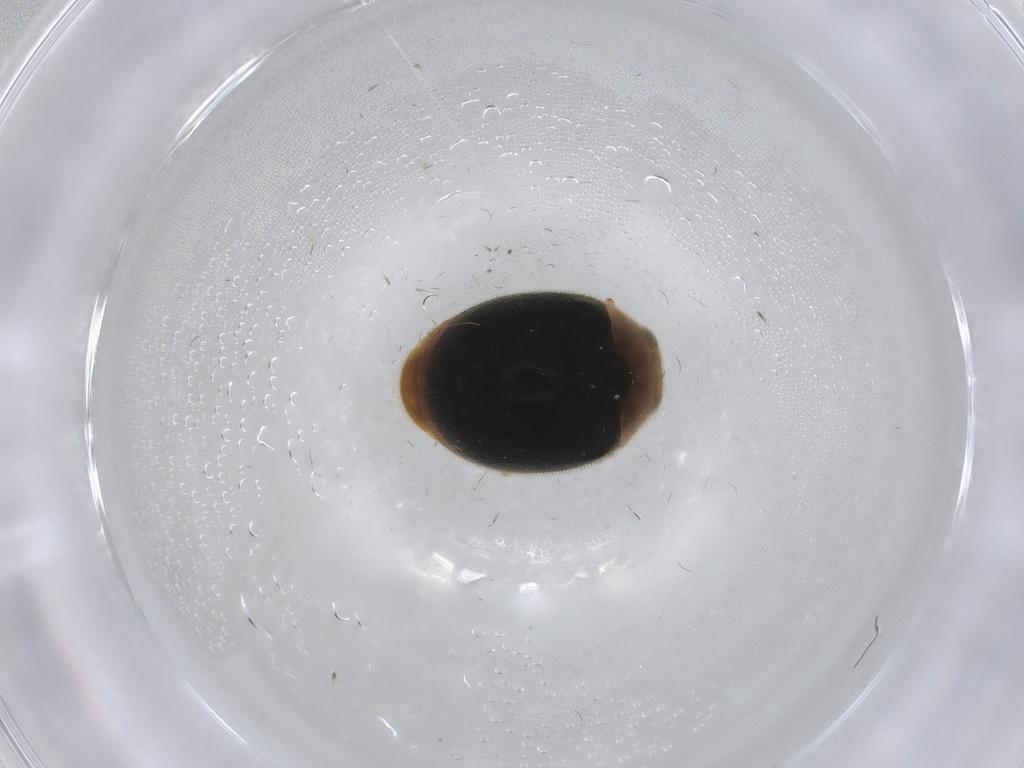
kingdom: Animalia
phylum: Arthropoda
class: Insecta
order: Coleoptera
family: Coccinellidae
